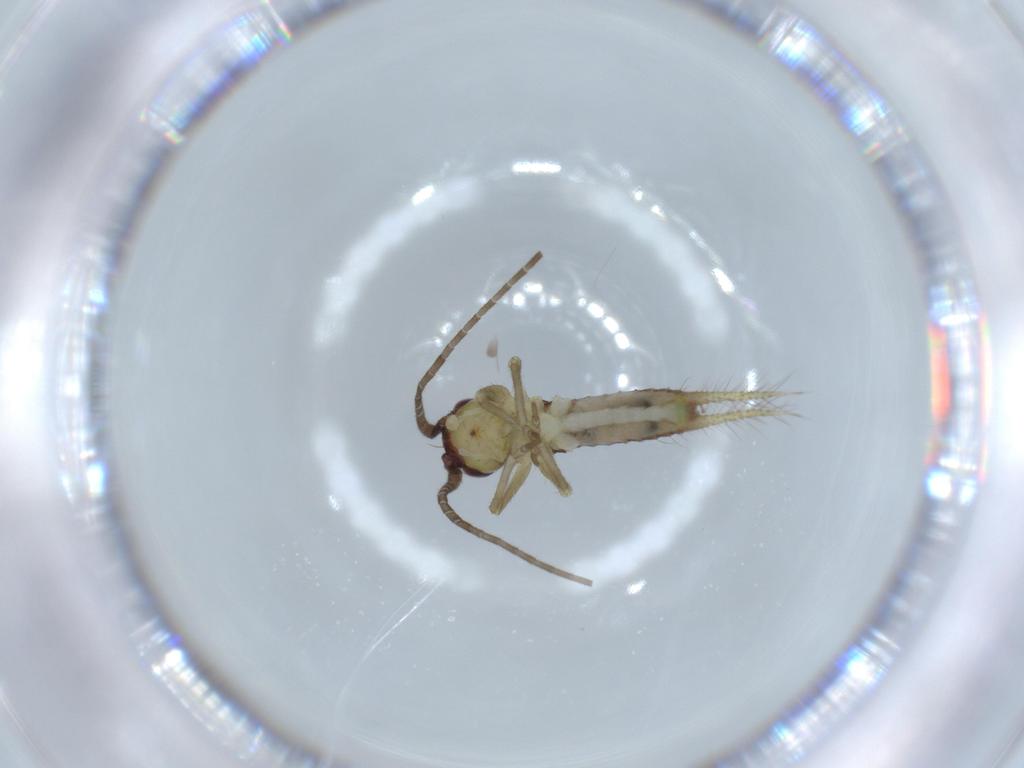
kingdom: Animalia
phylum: Arthropoda
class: Insecta
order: Orthoptera
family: Gryllidae
